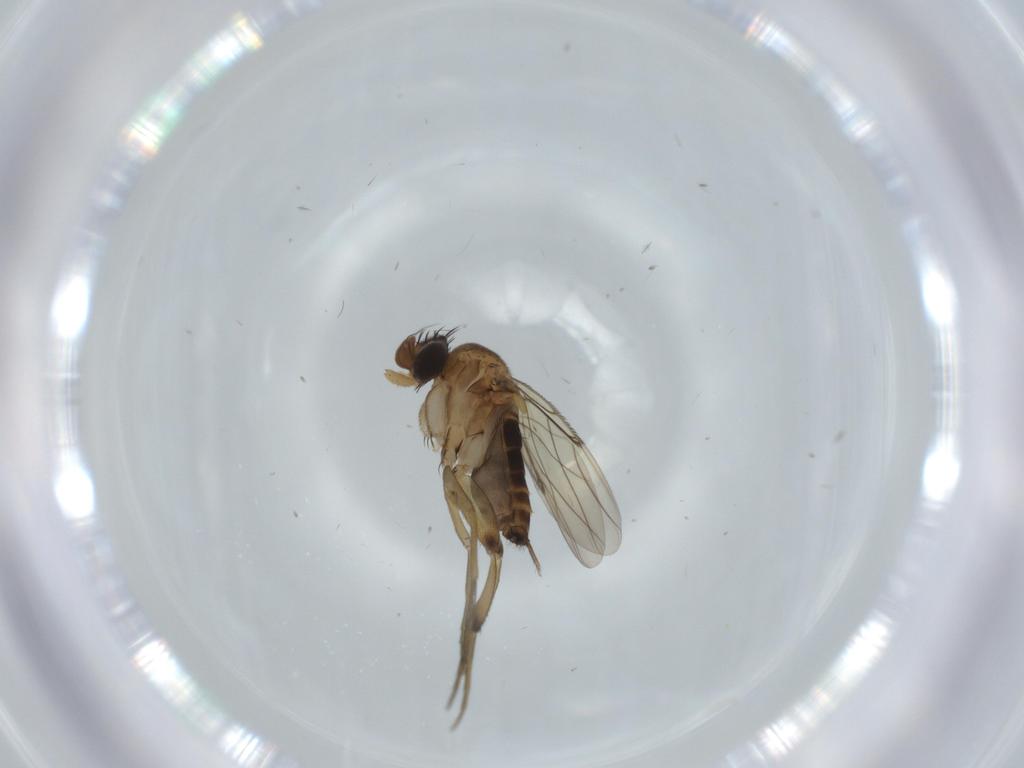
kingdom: Animalia
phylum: Arthropoda
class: Insecta
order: Diptera
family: Phoridae
